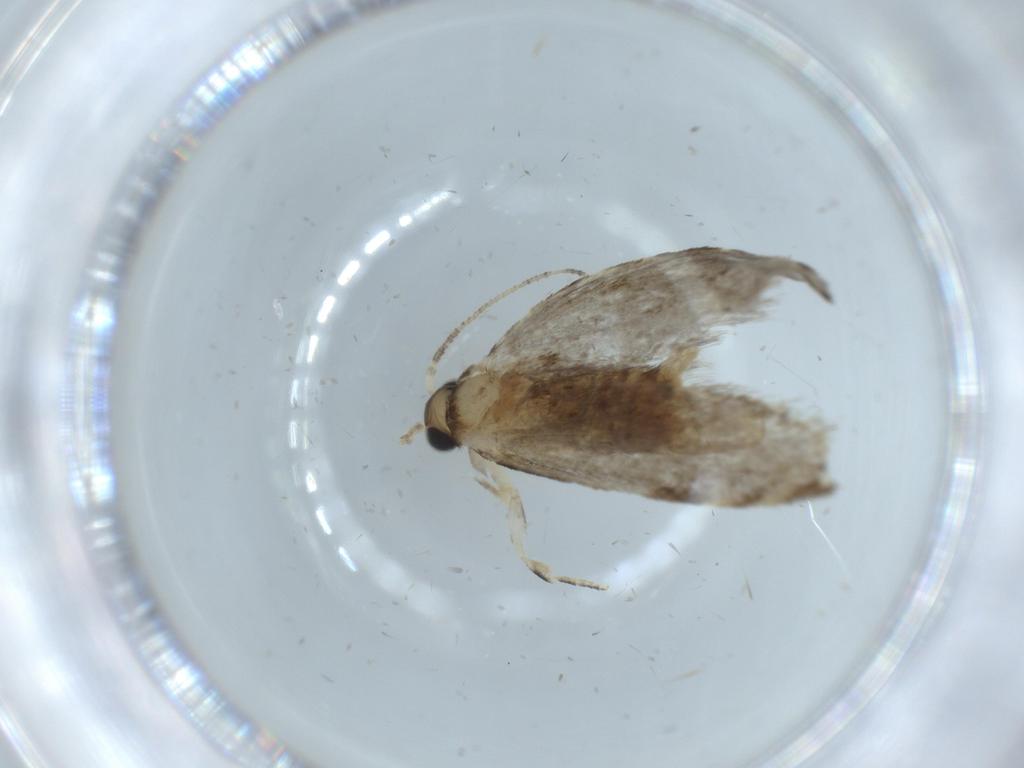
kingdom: Animalia
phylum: Arthropoda
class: Insecta
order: Lepidoptera
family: Tineidae
